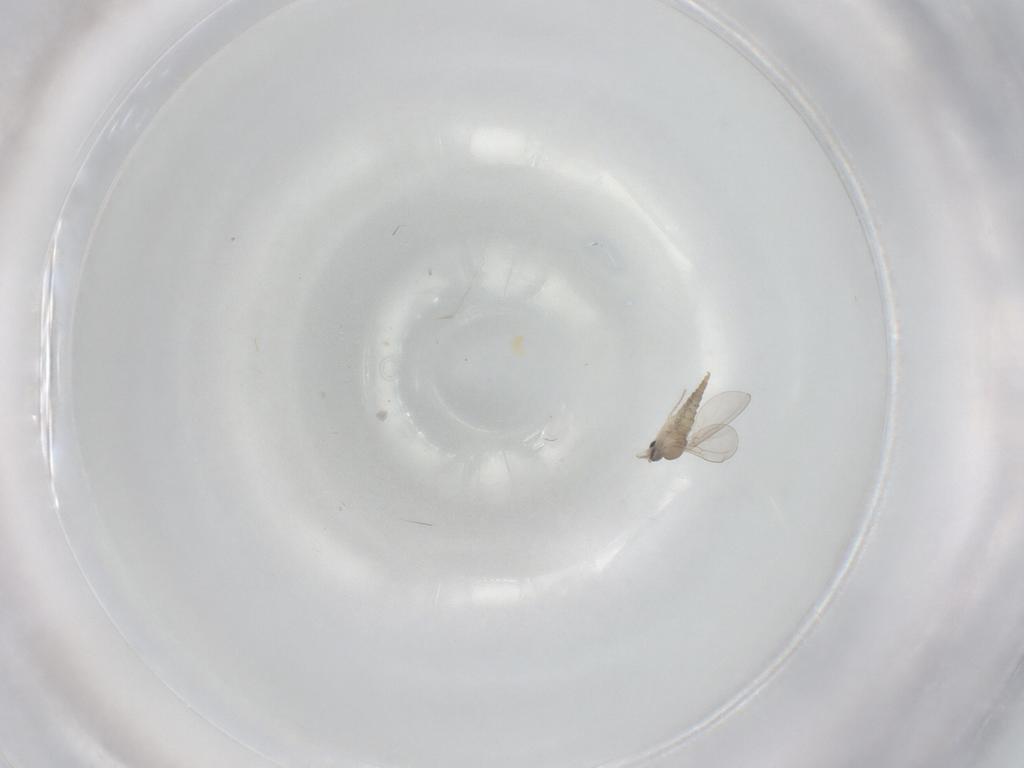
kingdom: Animalia
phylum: Arthropoda
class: Insecta
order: Diptera
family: Cecidomyiidae
